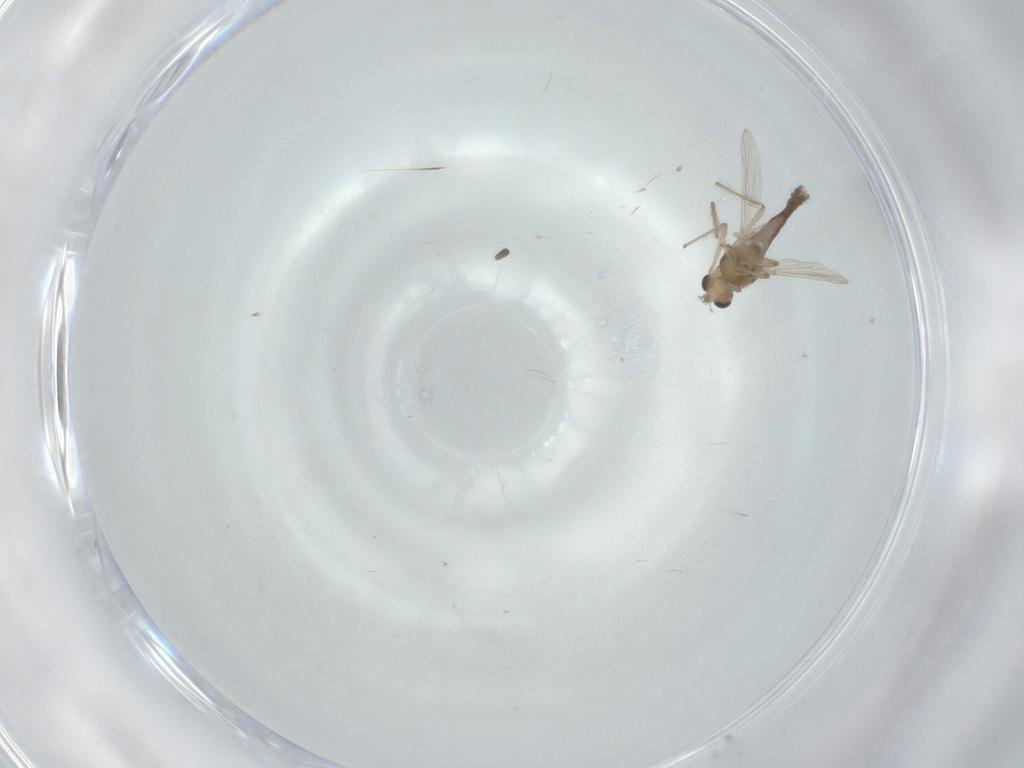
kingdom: Animalia
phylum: Arthropoda
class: Insecta
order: Diptera
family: Chironomidae
